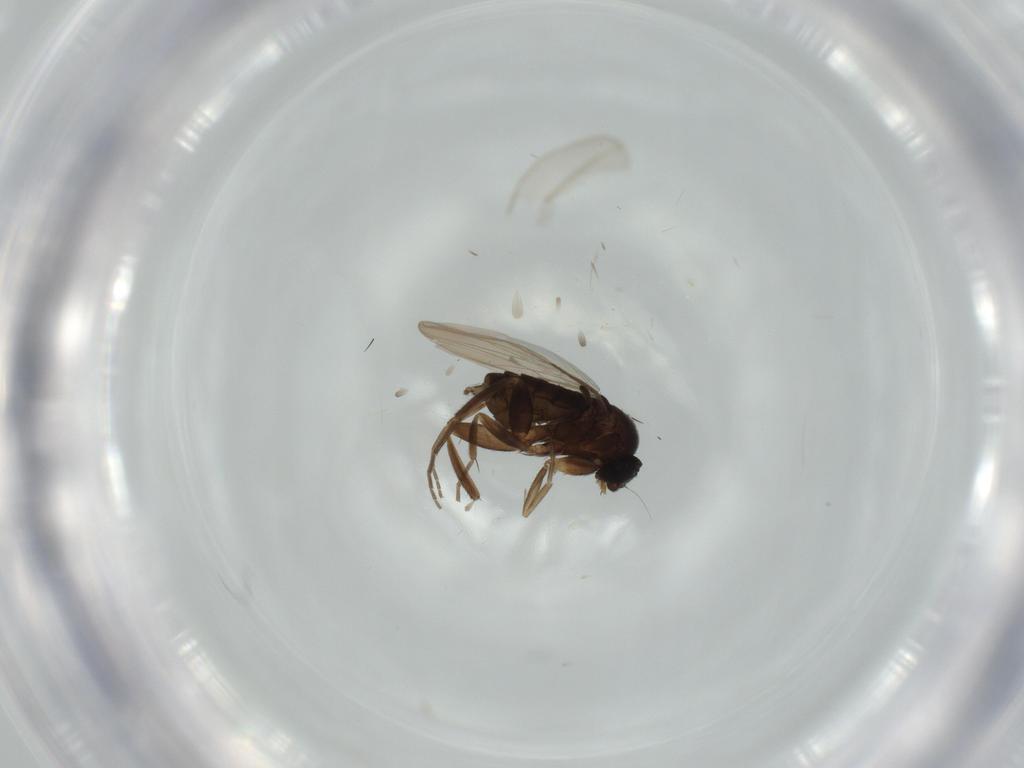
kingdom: Animalia
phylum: Arthropoda
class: Insecta
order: Diptera
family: Phoridae
